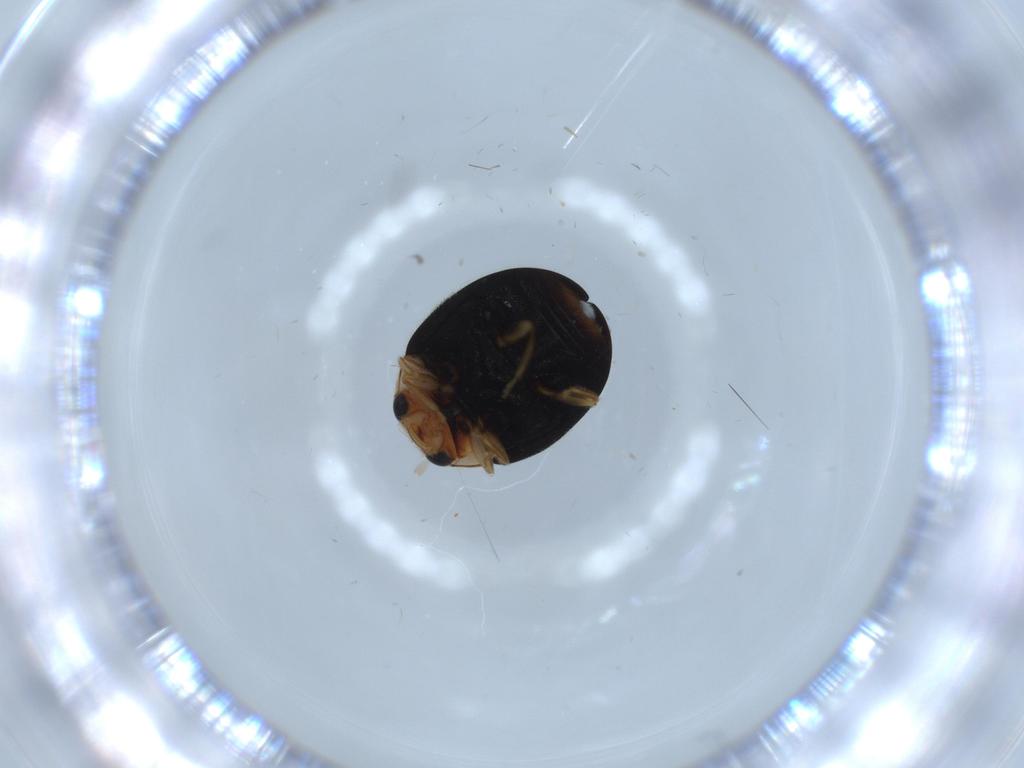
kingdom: Animalia
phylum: Arthropoda
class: Insecta
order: Coleoptera
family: Coccinellidae
